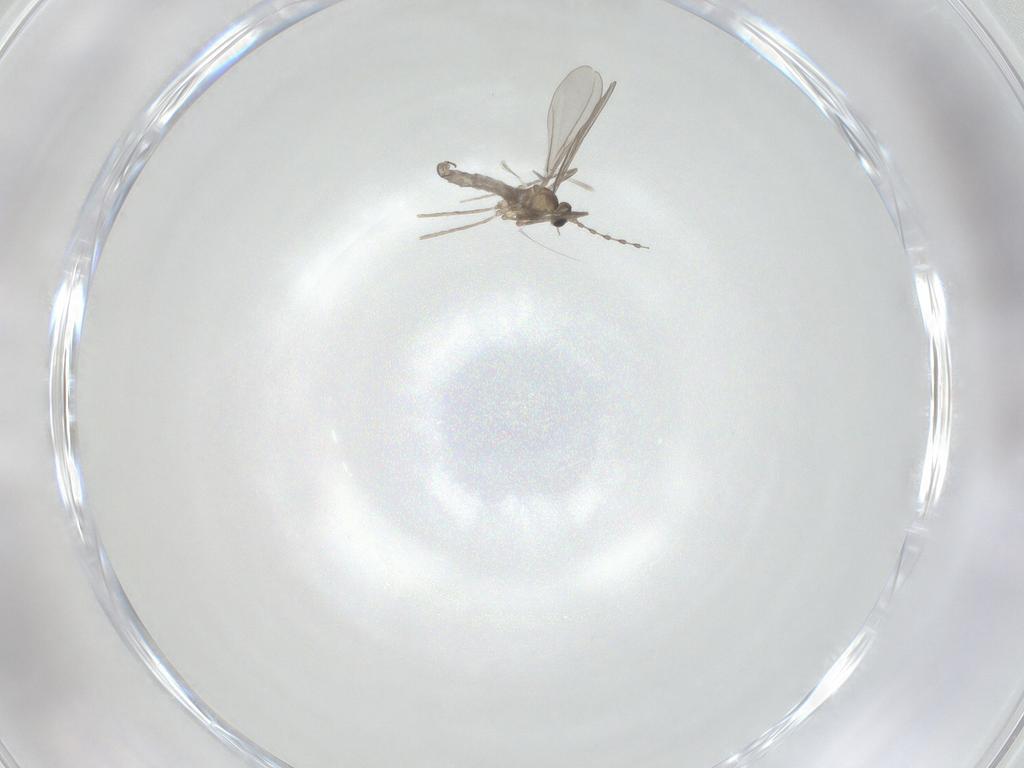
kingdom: Animalia
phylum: Arthropoda
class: Insecta
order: Diptera
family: Cecidomyiidae
